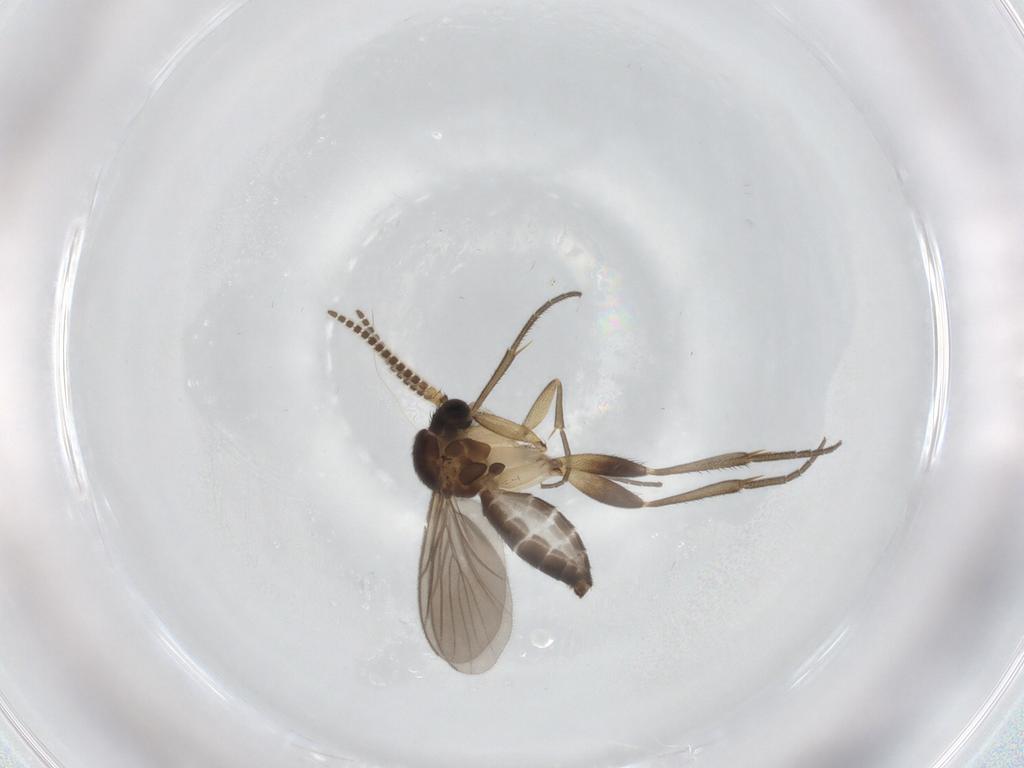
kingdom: Animalia
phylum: Arthropoda
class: Insecta
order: Diptera
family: Mycetophilidae
